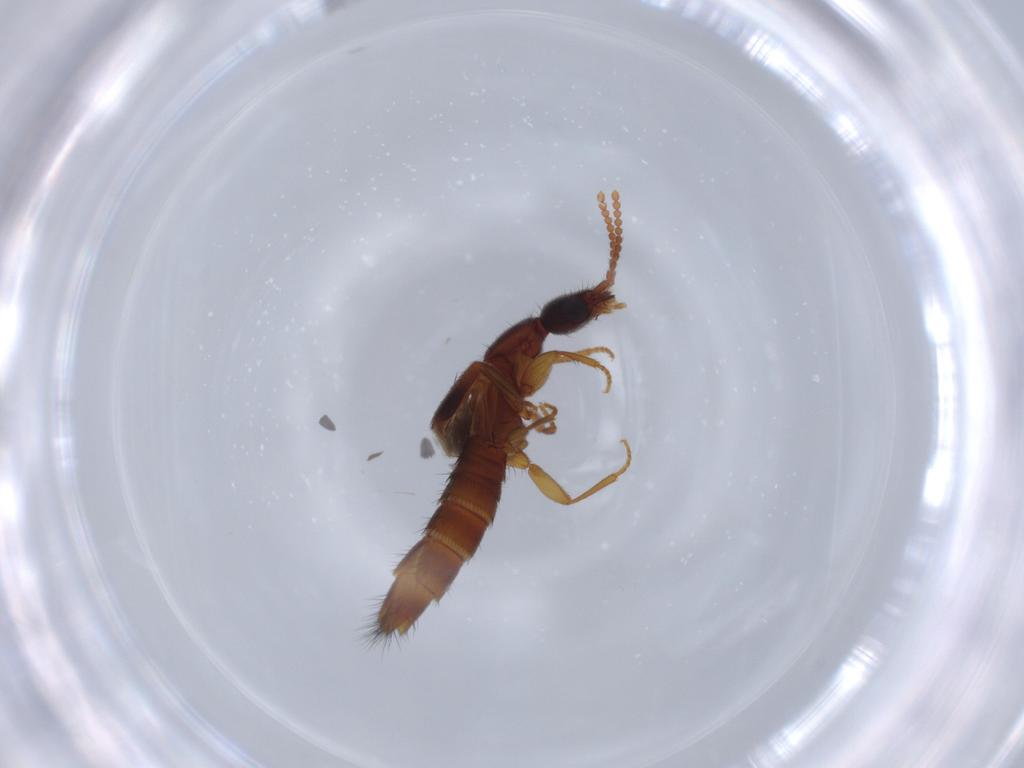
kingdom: Animalia
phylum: Arthropoda
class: Insecta
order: Coleoptera
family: Staphylinidae
